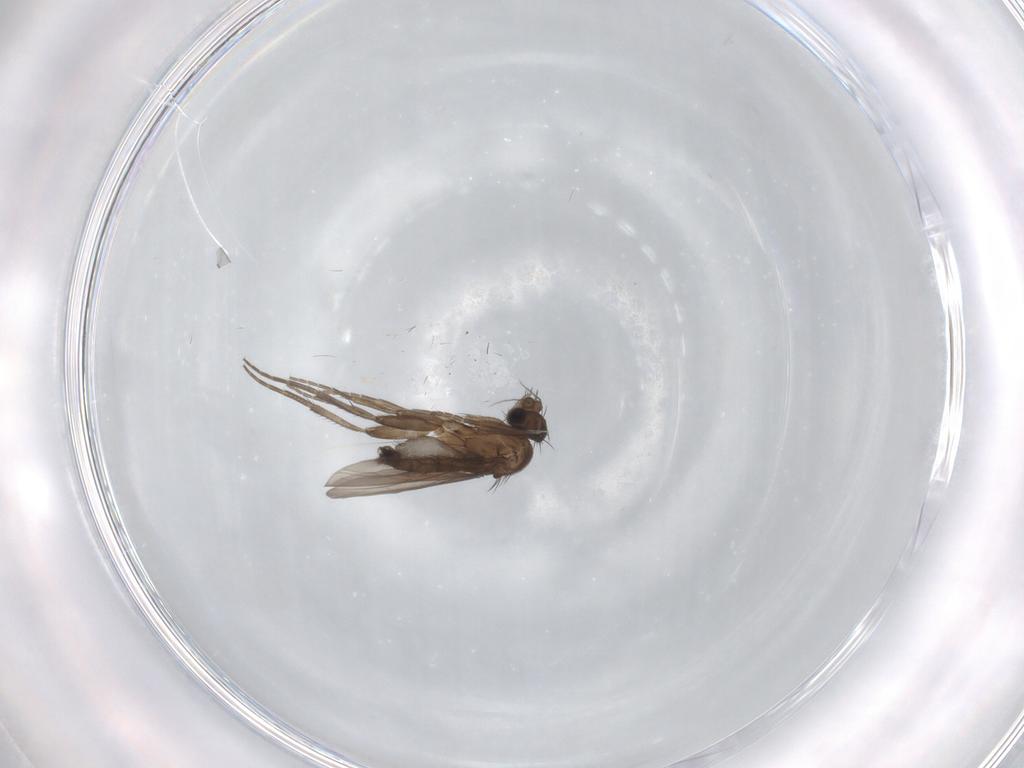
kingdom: Animalia
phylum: Arthropoda
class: Insecta
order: Diptera
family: Phoridae
